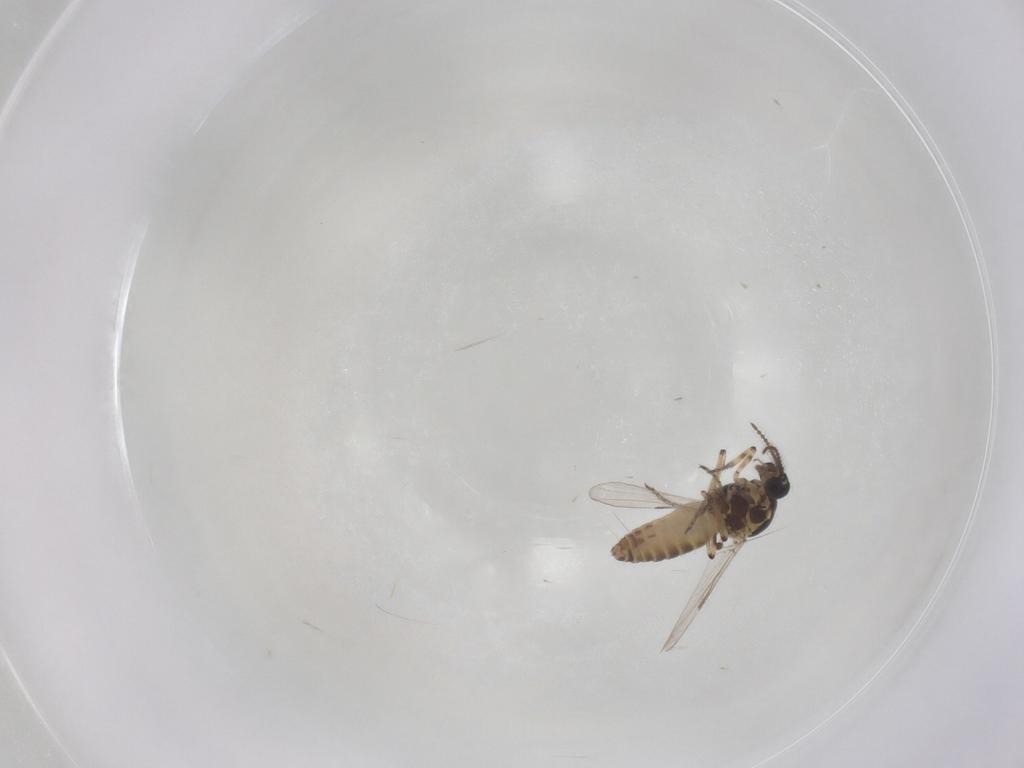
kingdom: Animalia
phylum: Arthropoda
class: Insecta
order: Diptera
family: Ceratopogonidae
